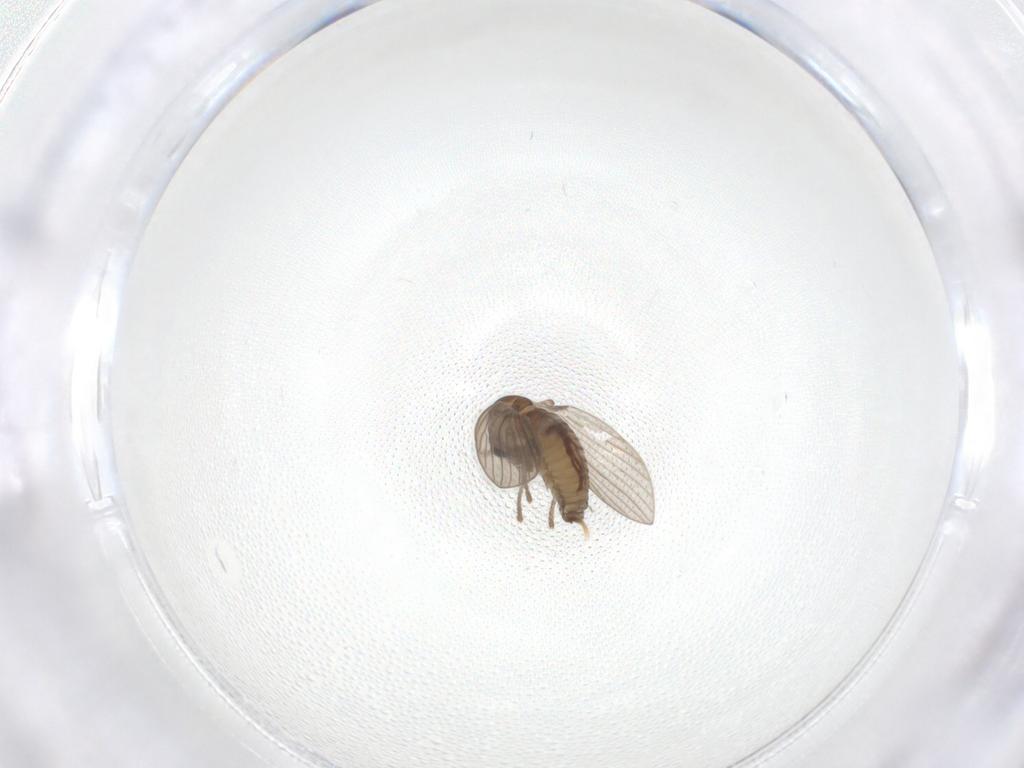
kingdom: Animalia
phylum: Arthropoda
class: Insecta
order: Diptera
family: Psychodidae
